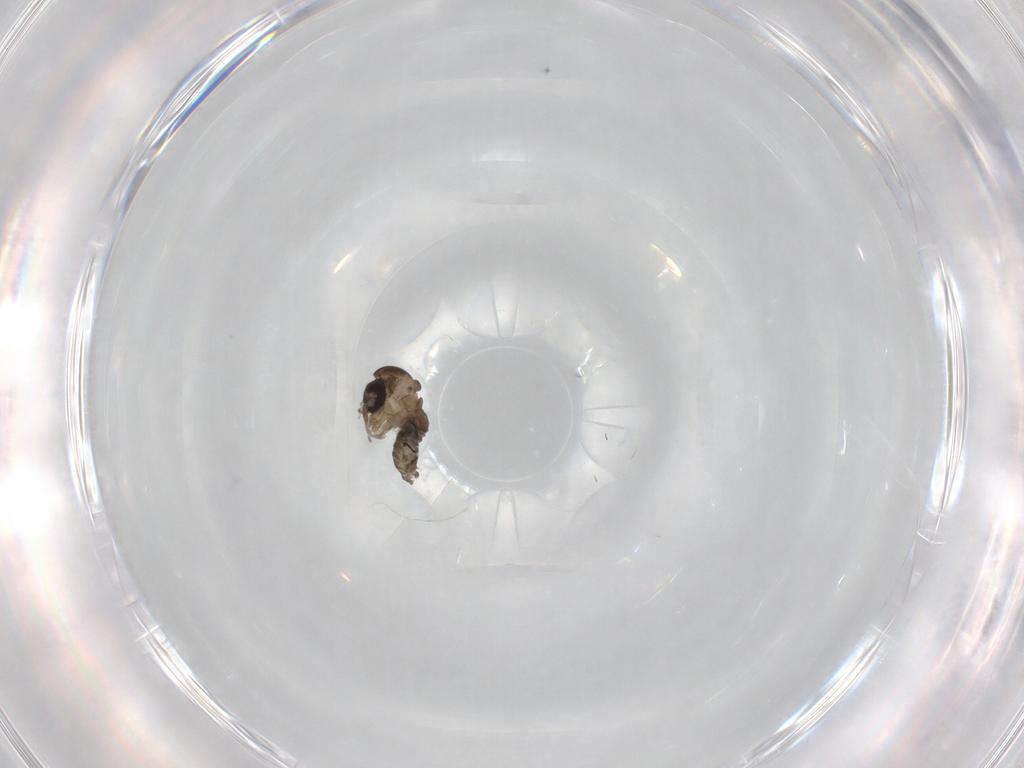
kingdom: Animalia
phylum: Arthropoda
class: Insecta
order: Diptera
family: Psychodidae
